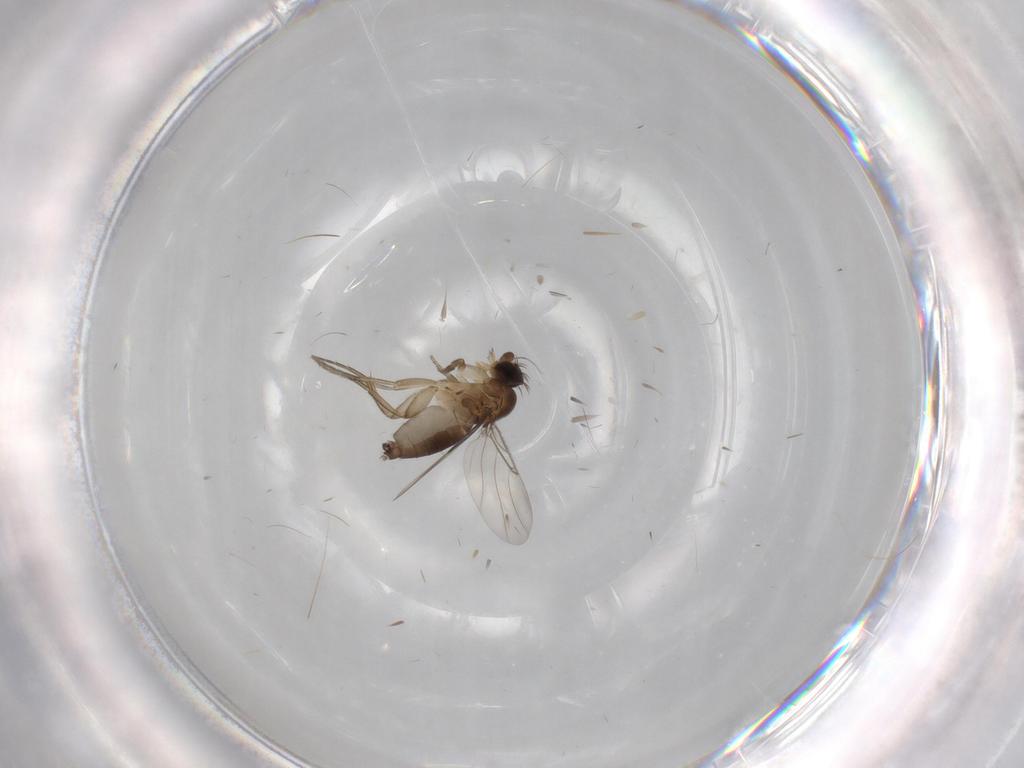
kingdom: Animalia
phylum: Arthropoda
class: Insecta
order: Diptera
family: Phoridae
